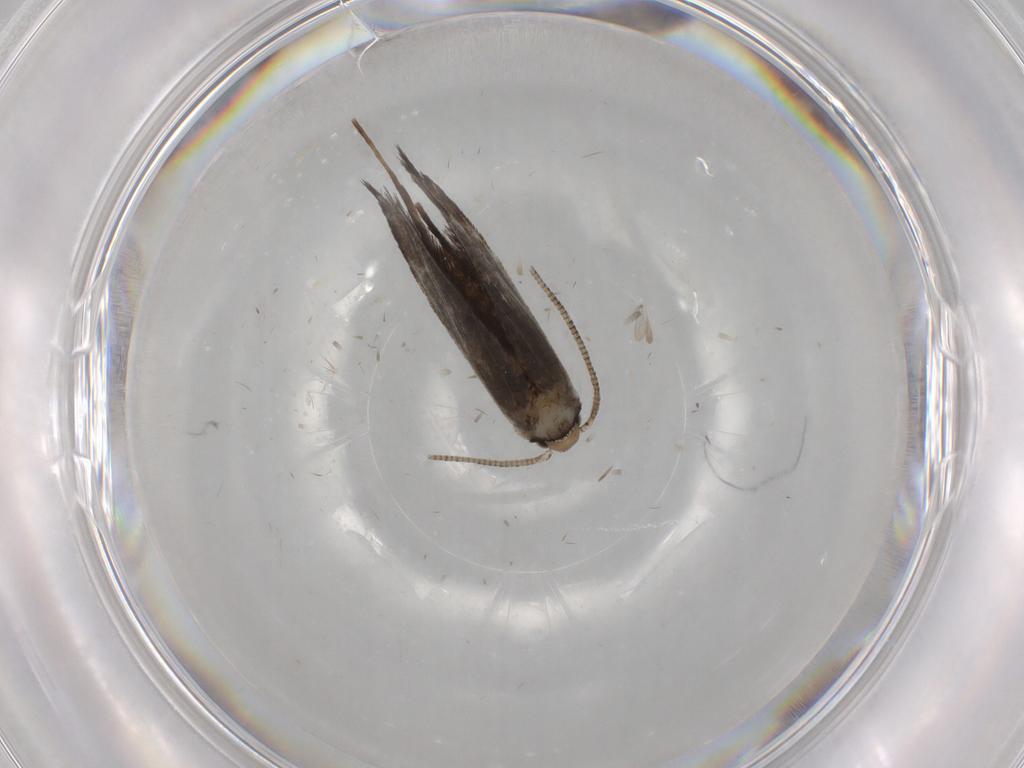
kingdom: Animalia
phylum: Arthropoda
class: Insecta
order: Lepidoptera
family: Nymphalidae
